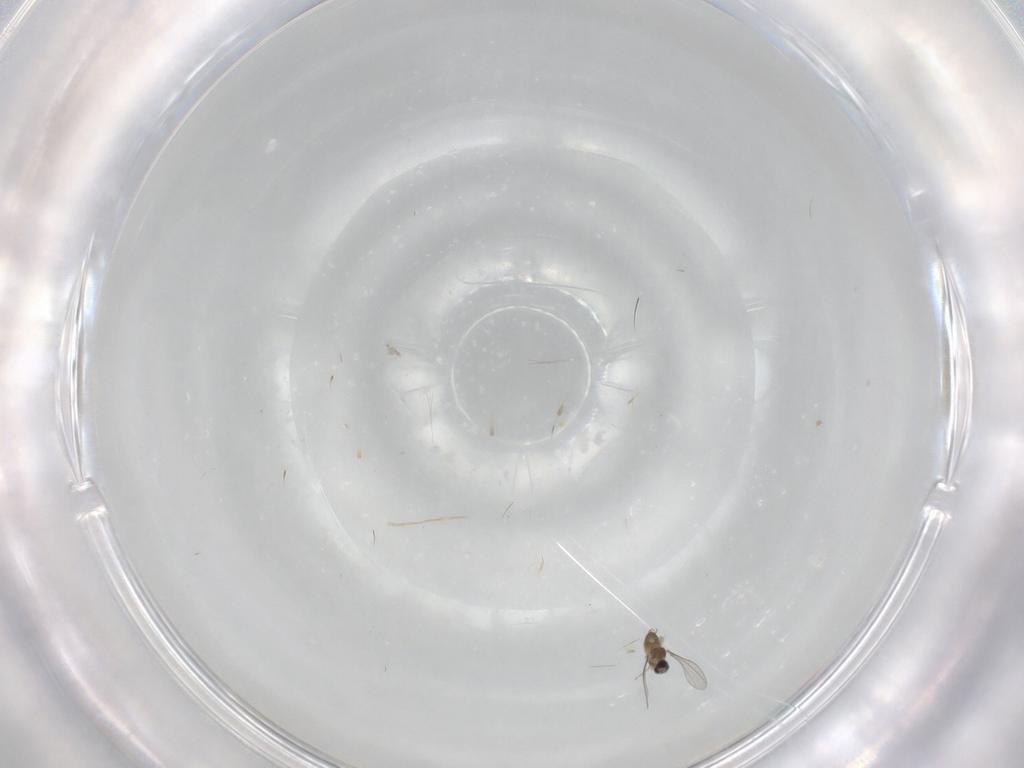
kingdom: Animalia
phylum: Arthropoda
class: Insecta
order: Diptera
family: Cecidomyiidae
